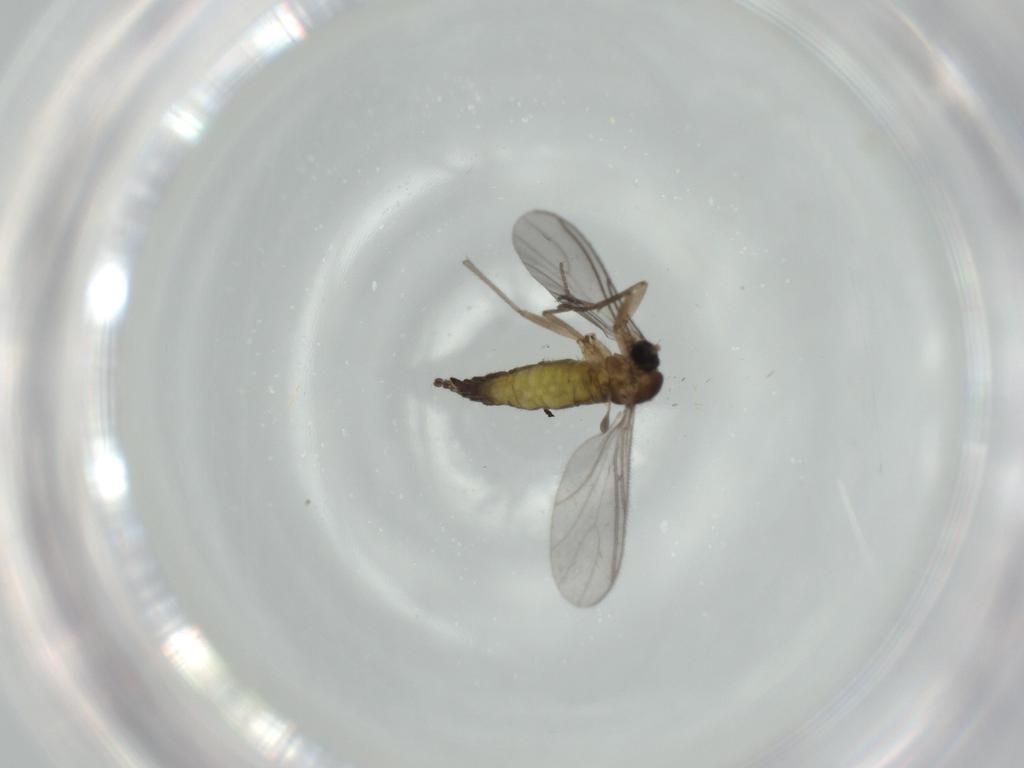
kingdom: Animalia
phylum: Arthropoda
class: Insecta
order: Diptera
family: Sciaridae
